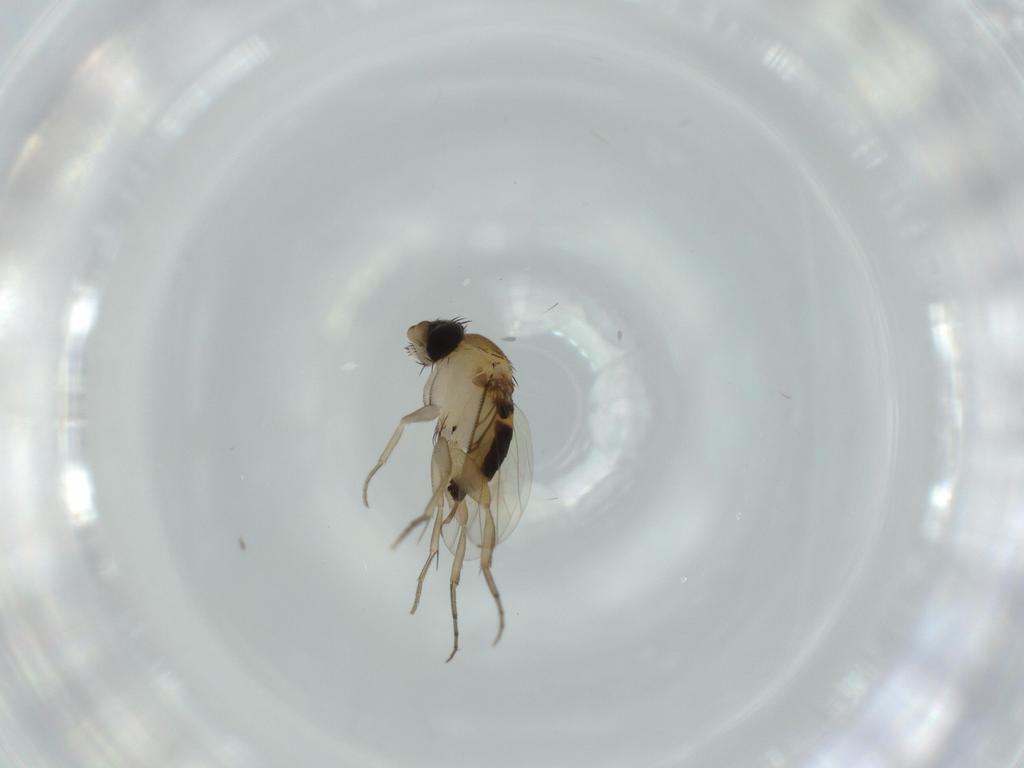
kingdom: Animalia
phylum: Arthropoda
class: Insecta
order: Diptera
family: Phoridae
